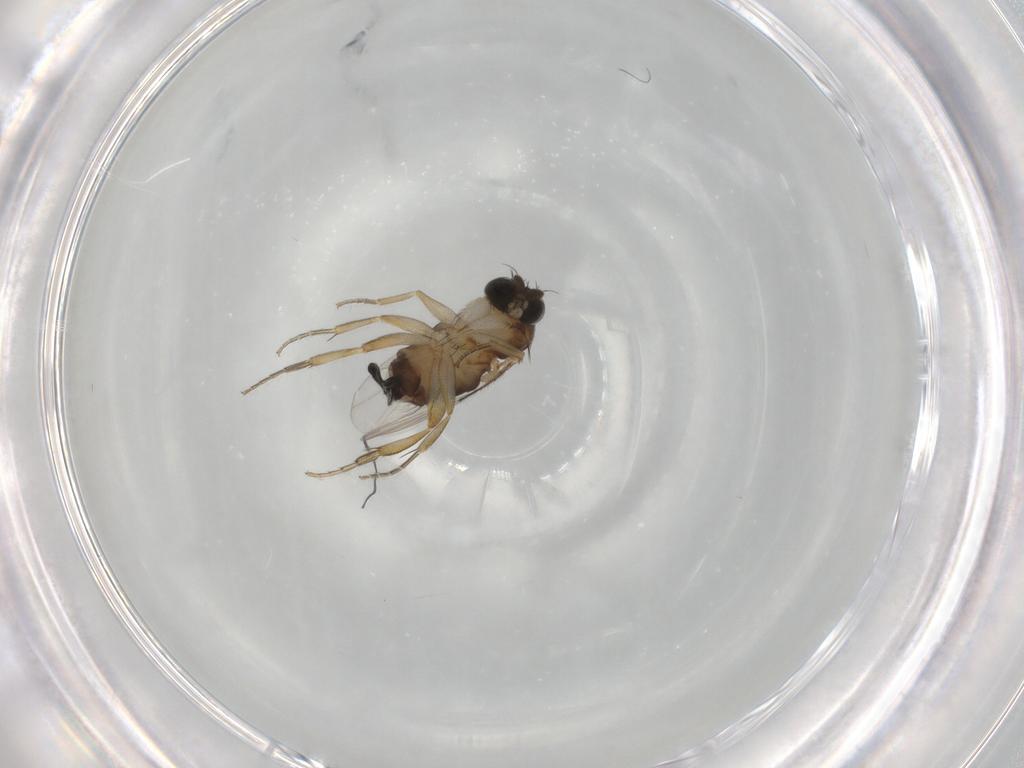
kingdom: Animalia
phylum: Arthropoda
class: Insecta
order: Diptera
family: Phoridae
